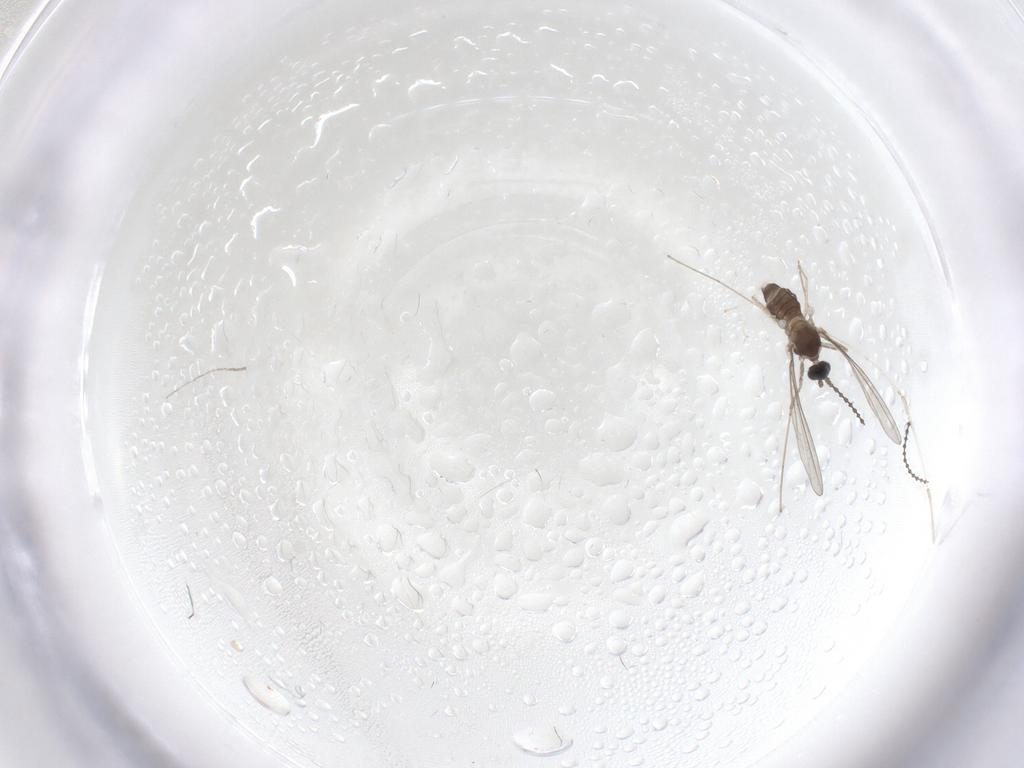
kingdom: Animalia
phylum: Arthropoda
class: Insecta
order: Diptera
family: Cecidomyiidae
